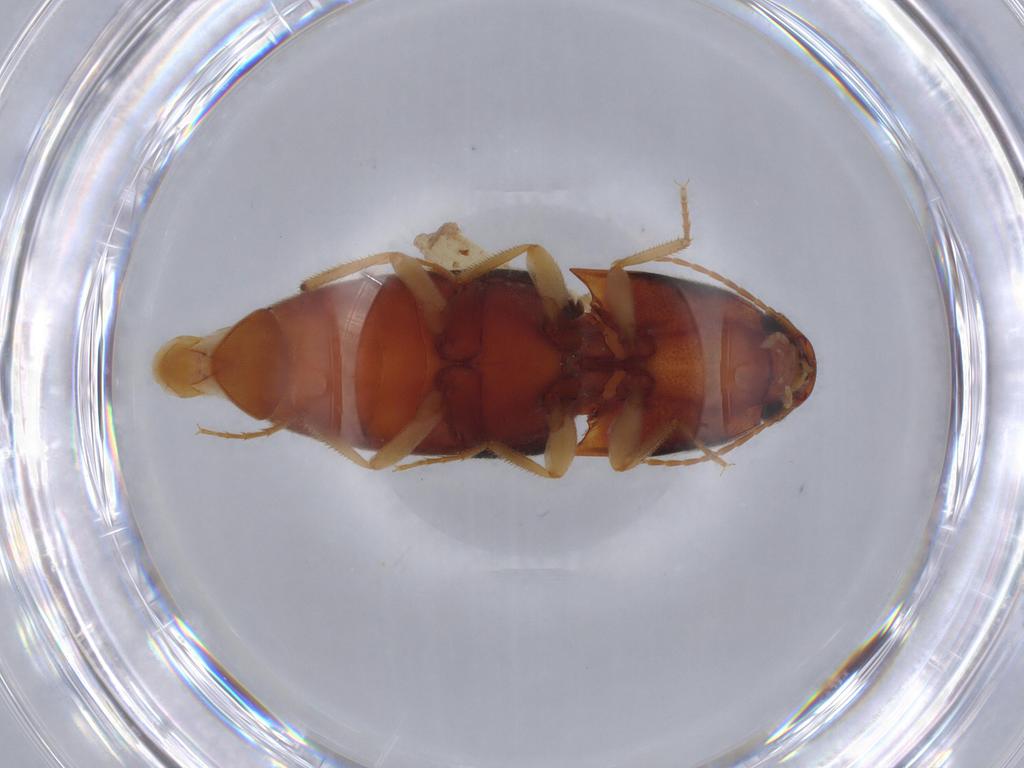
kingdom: Animalia
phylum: Arthropoda
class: Insecta
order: Coleoptera
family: Elateridae
